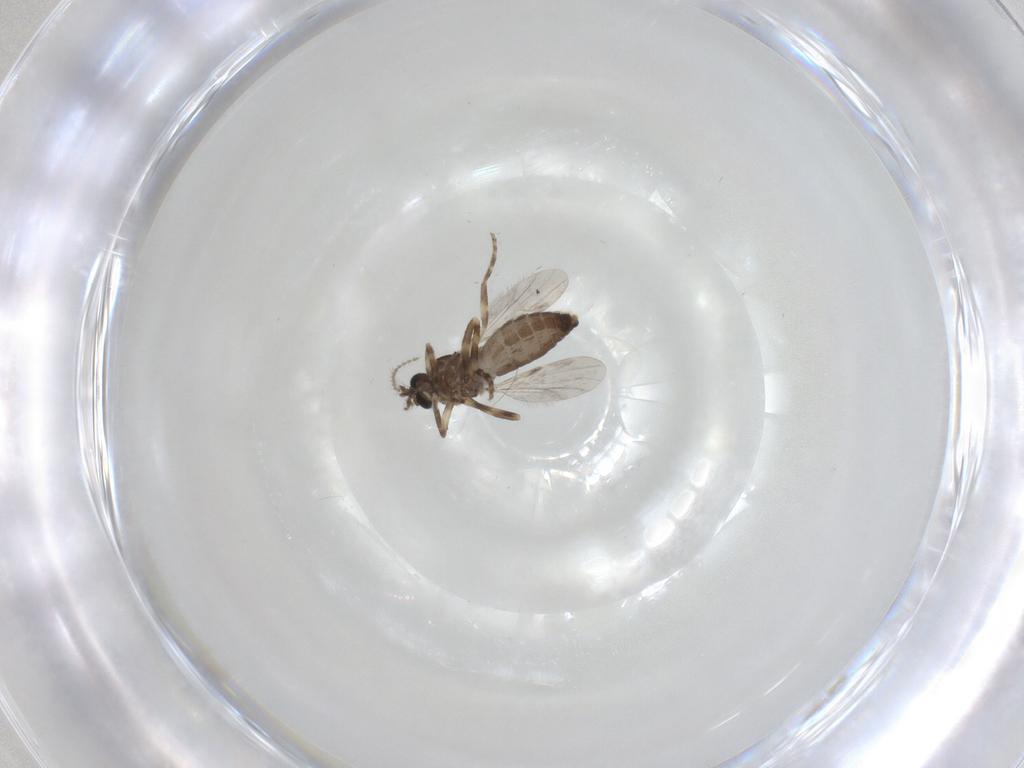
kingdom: Animalia
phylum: Arthropoda
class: Insecta
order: Diptera
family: Ceratopogonidae
